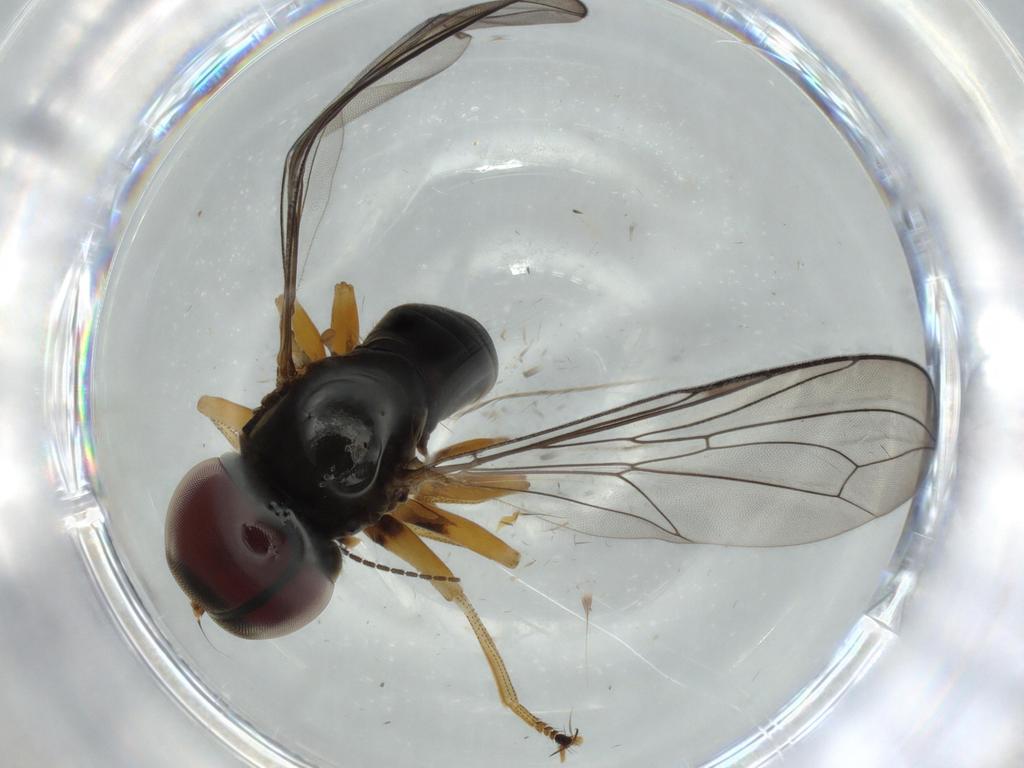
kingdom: Animalia
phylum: Arthropoda
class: Insecta
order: Diptera
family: Sciaridae
